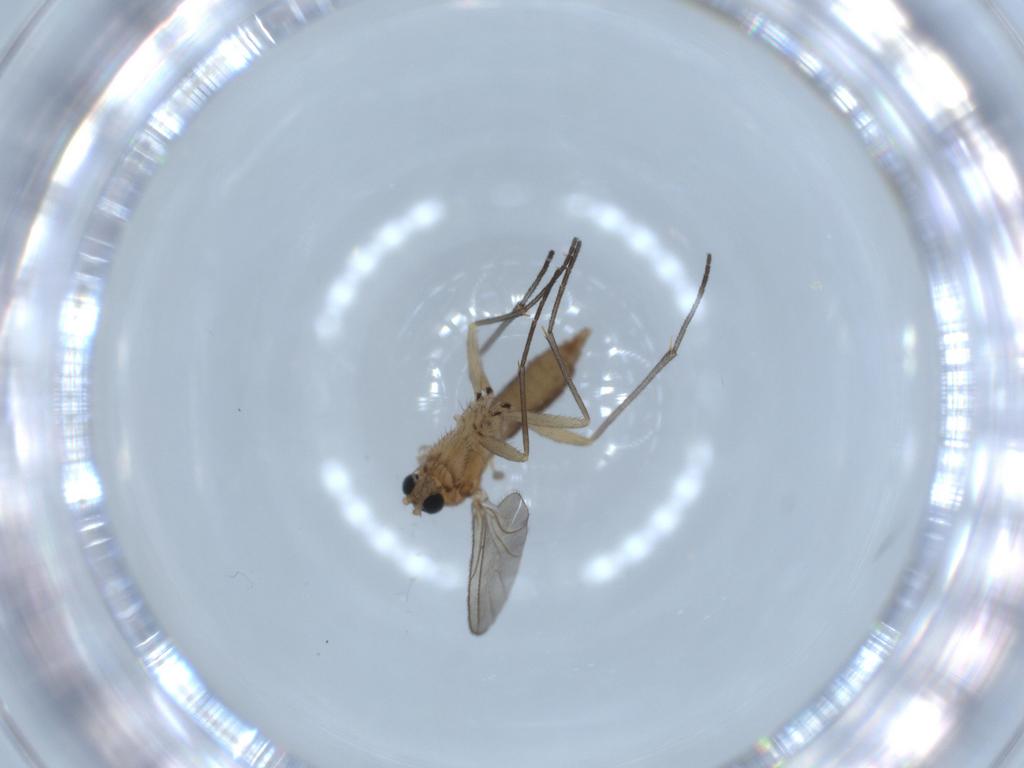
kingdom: Animalia
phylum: Arthropoda
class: Insecta
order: Diptera
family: Sciaridae
